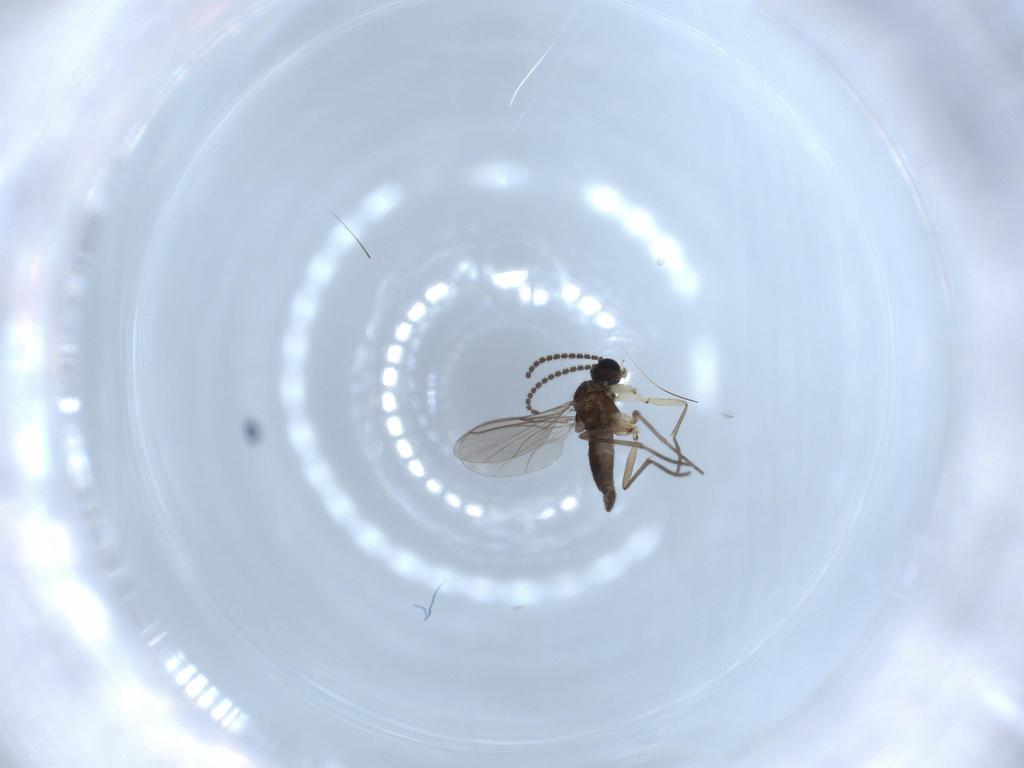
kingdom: Animalia
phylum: Arthropoda
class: Insecta
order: Diptera
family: Sciaridae
